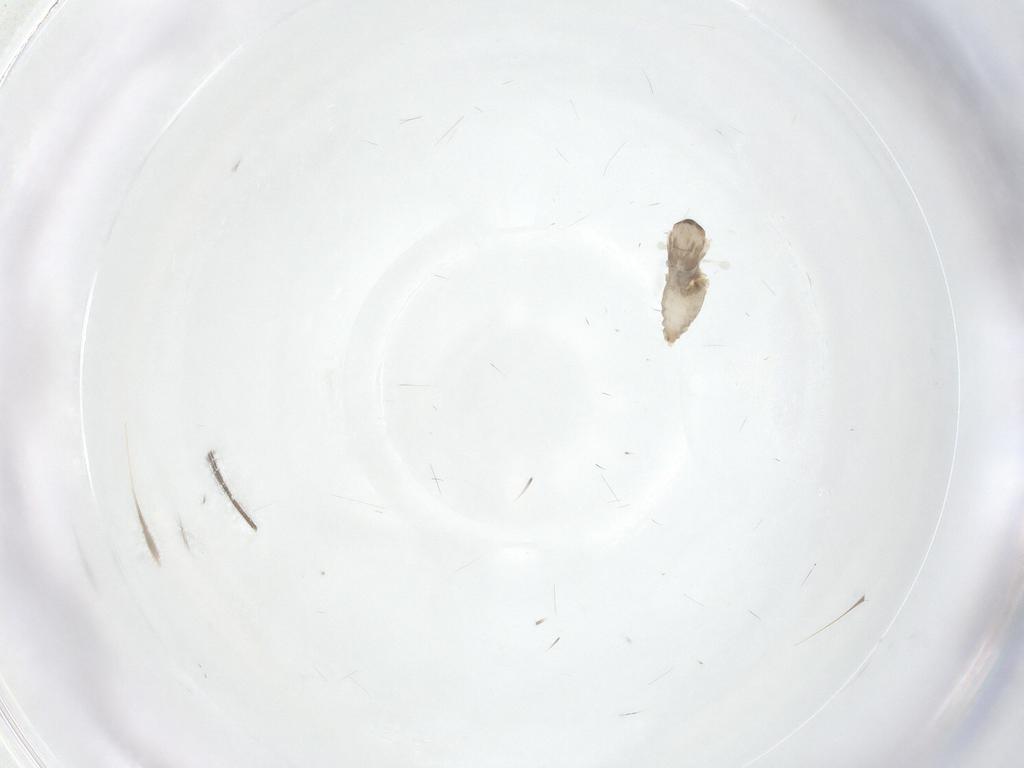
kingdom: Animalia
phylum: Arthropoda
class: Insecta
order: Diptera
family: Cecidomyiidae
